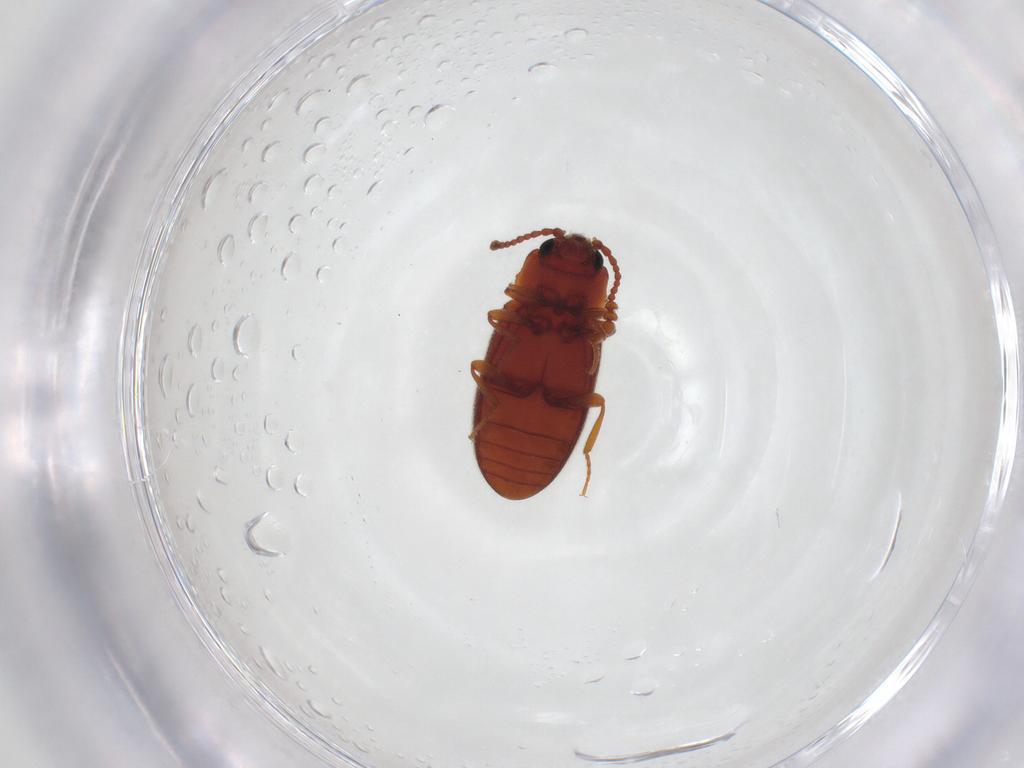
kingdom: Animalia
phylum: Arthropoda
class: Insecta
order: Coleoptera
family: Cryptophagidae
